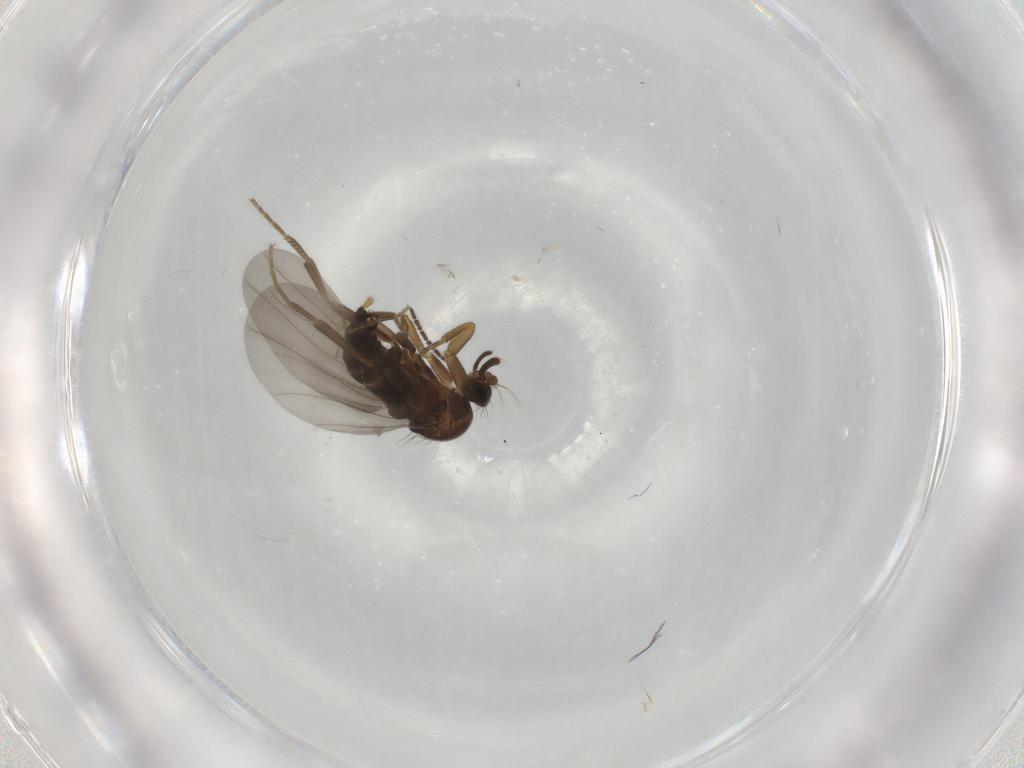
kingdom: Animalia
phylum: Arthropoda
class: Insecta
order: Diptera
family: Phoridae
